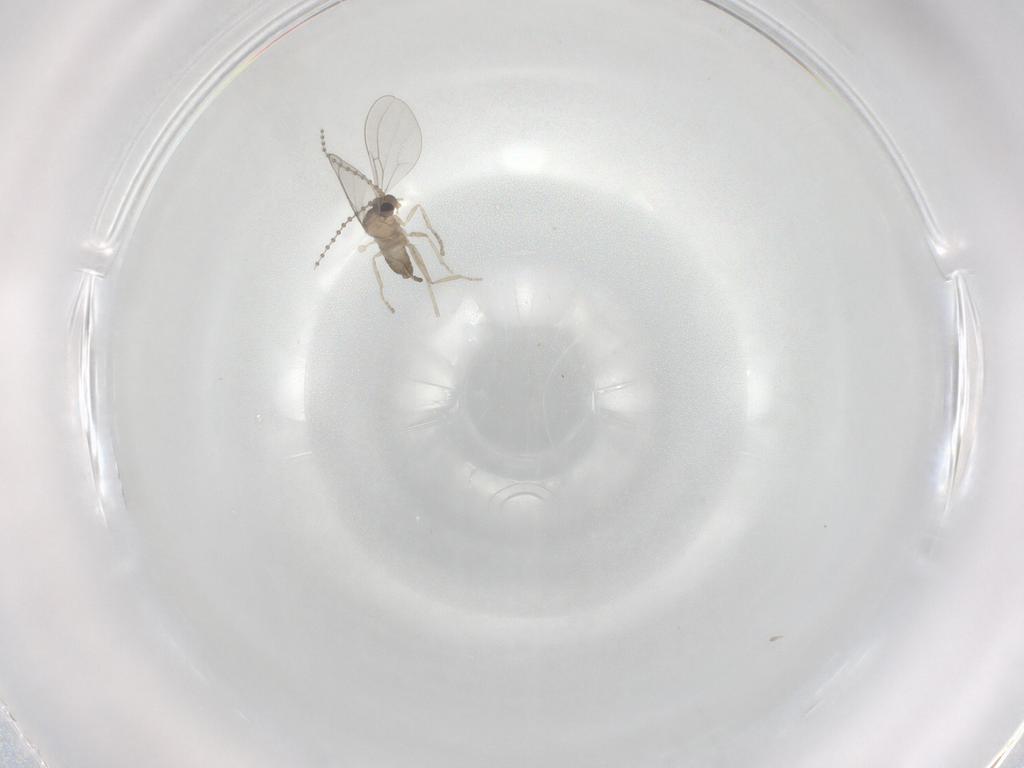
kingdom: Animalia
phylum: Arthropoda
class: Insecta
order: Diptera
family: Cecidomyiidae
